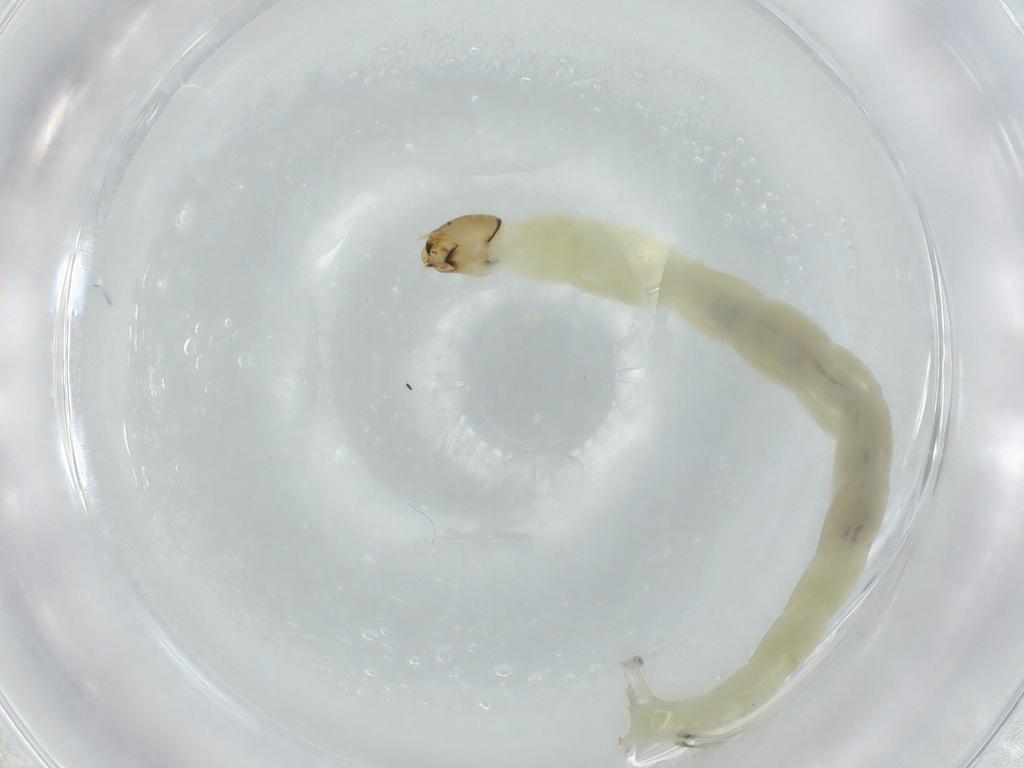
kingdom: Animalia
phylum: Arthropoda
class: Insecta
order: Diptera
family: Chironomidae
